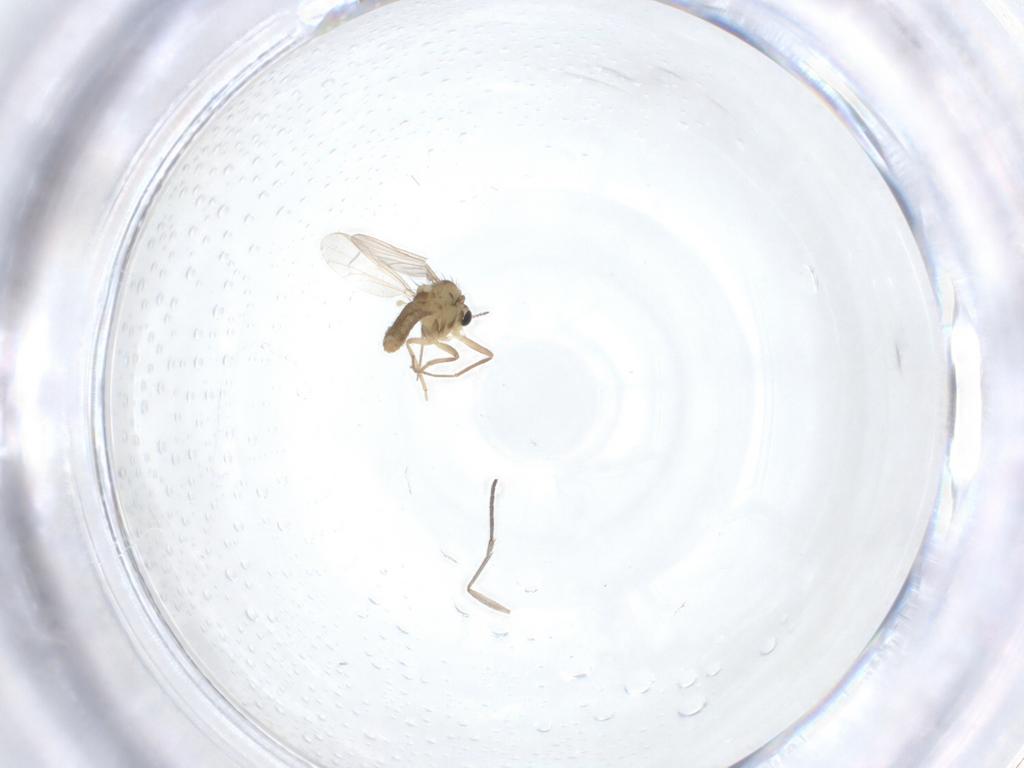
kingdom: Animalia
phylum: Arthropoda
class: Insecta
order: Diptera
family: Chironomidae
